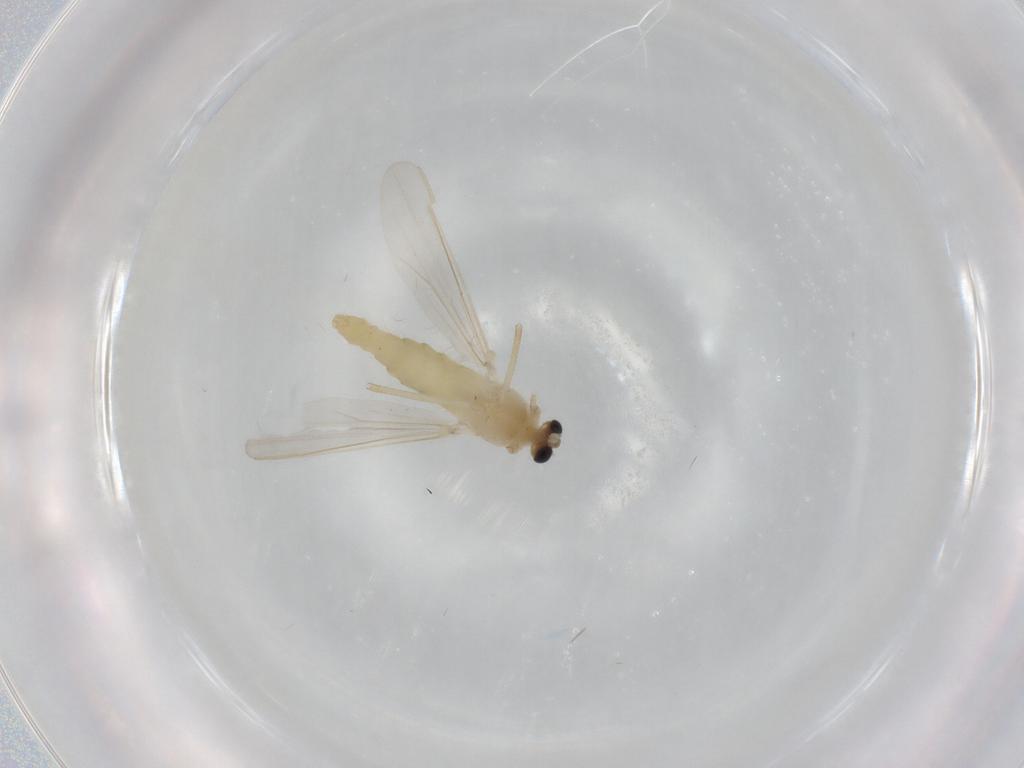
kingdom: Animalia
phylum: Arthropoda
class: Insecta
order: Diptera
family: Chironomidae
